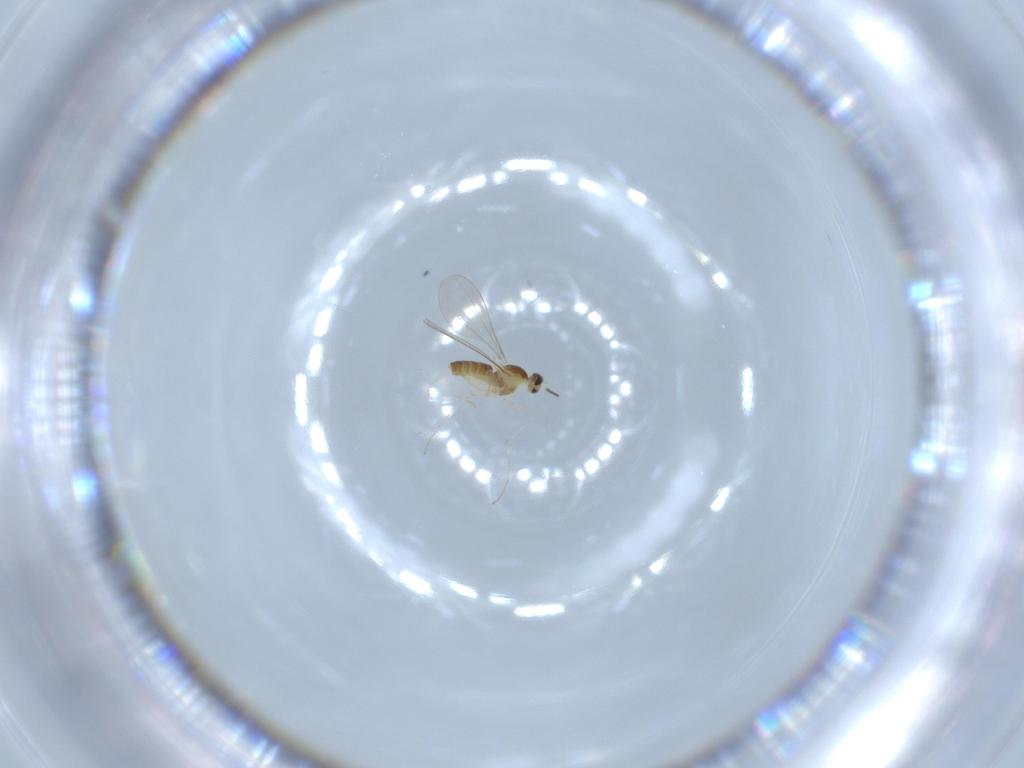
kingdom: Animalia
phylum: Arthropoda
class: Insecta
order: Diptera
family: Cecidomyiidae
